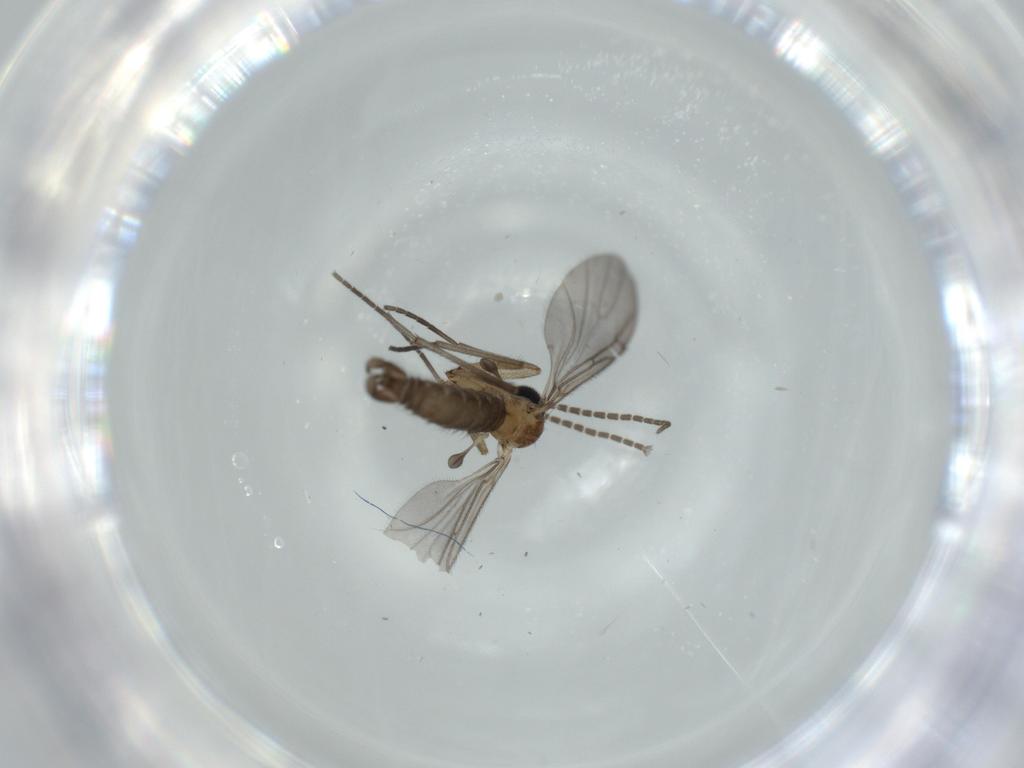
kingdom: Animalia
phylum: Arthropoda
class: Insecta
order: Diptera
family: Sciaridae
